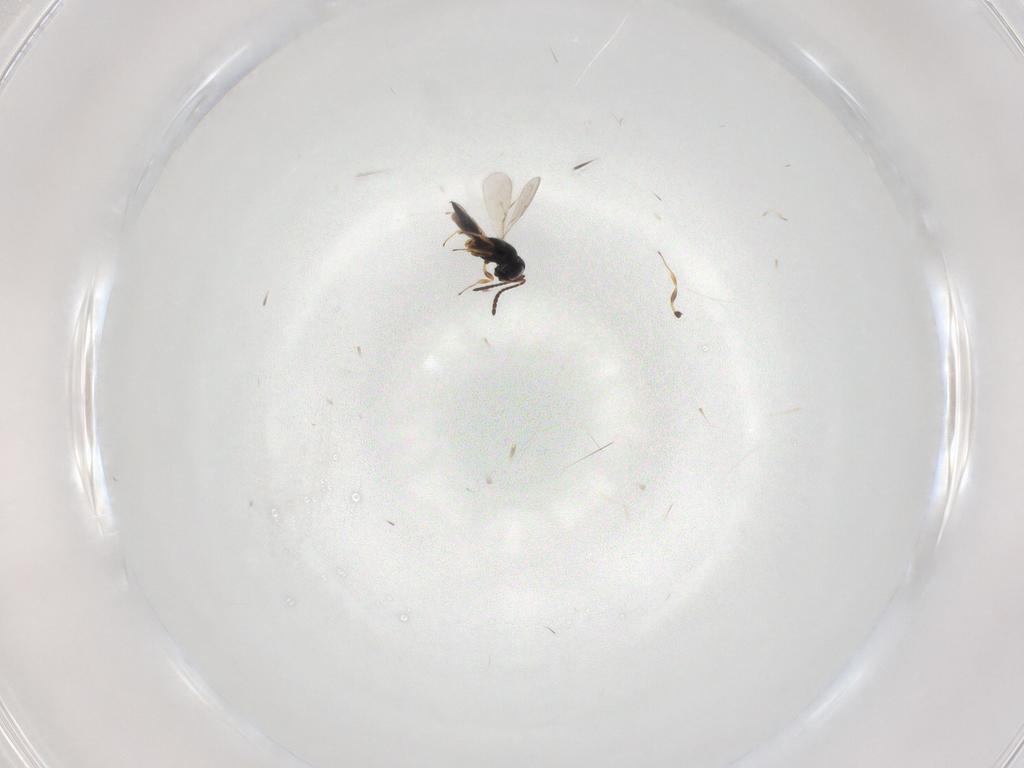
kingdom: Animalia
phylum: Arthropoda
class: Insecta
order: Hymenoptera
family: Scelionidae
